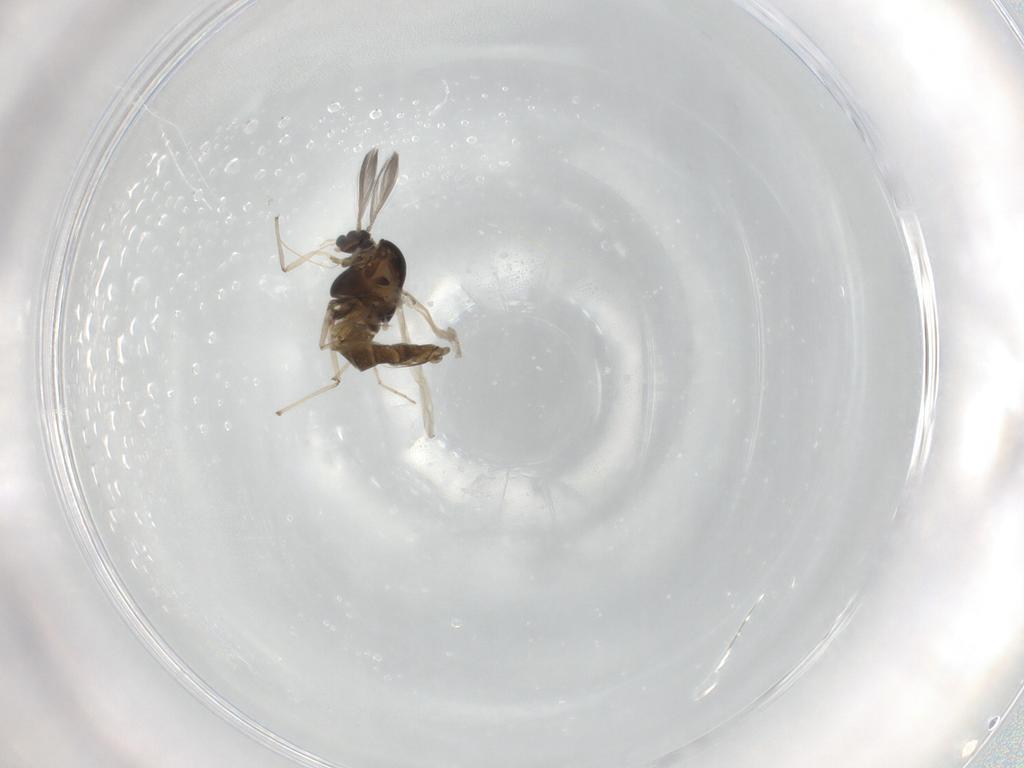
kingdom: Animalia
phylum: Arthropoda
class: Insecta
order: Diptera
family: Chironomidae
